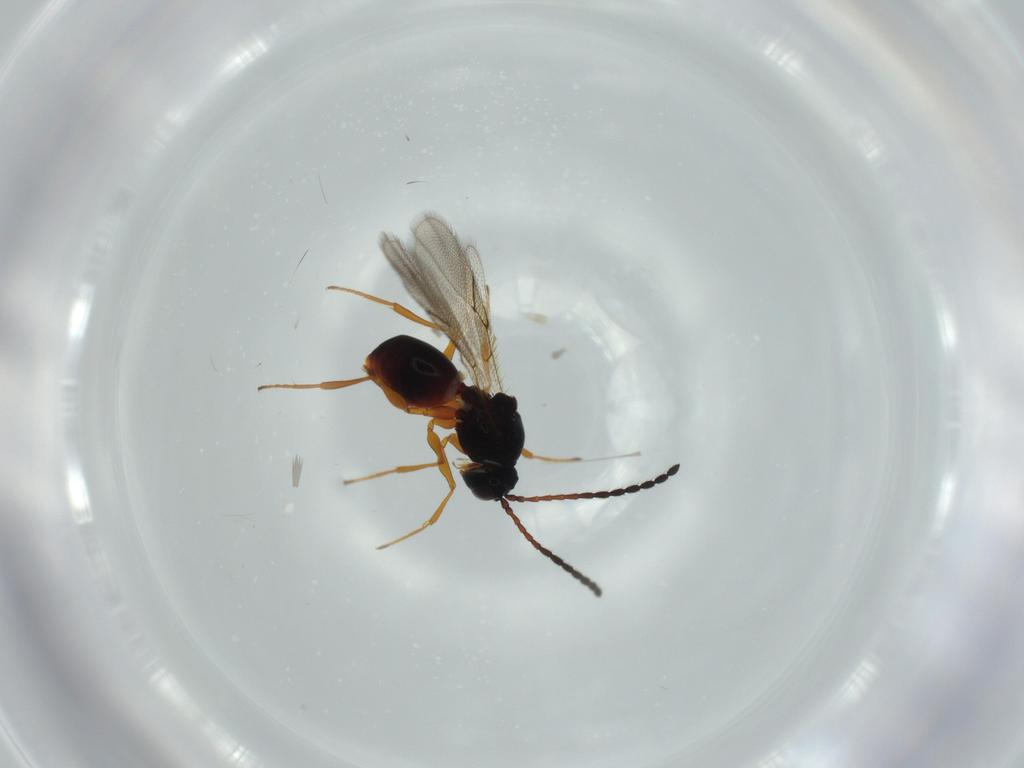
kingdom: Animalia
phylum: Arthropoda
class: Insecta
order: Hymenoptera
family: Figitidae
